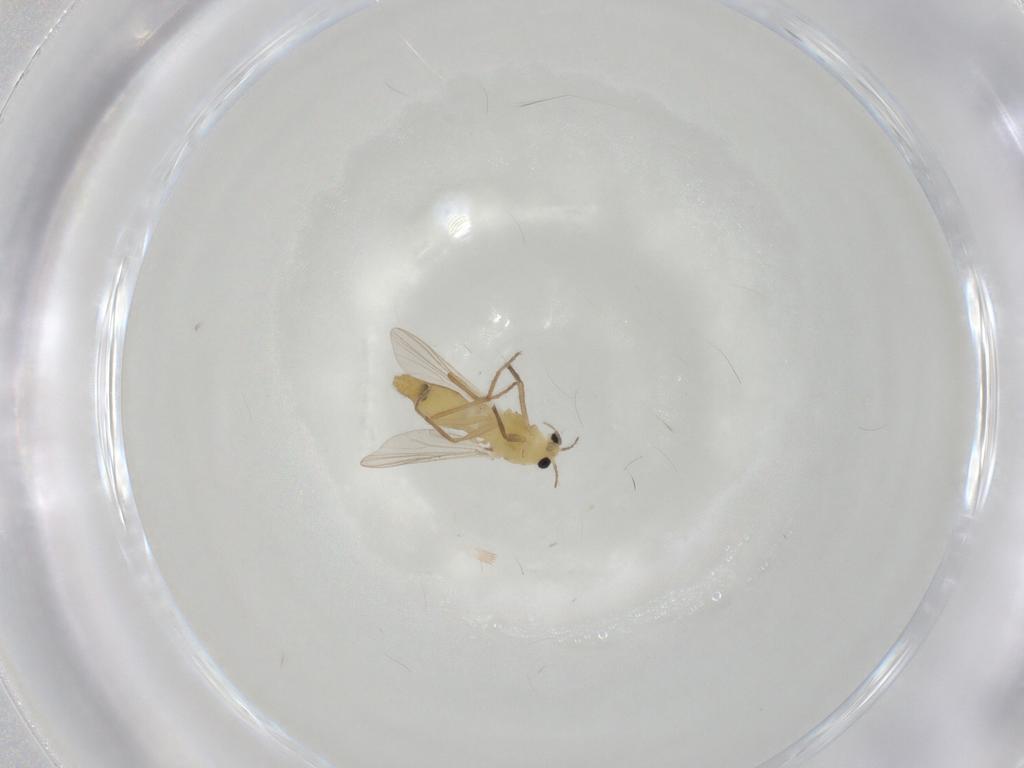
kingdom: Animalia
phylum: Arthropoda
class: Insecta
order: Diptera
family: Chironomidae
